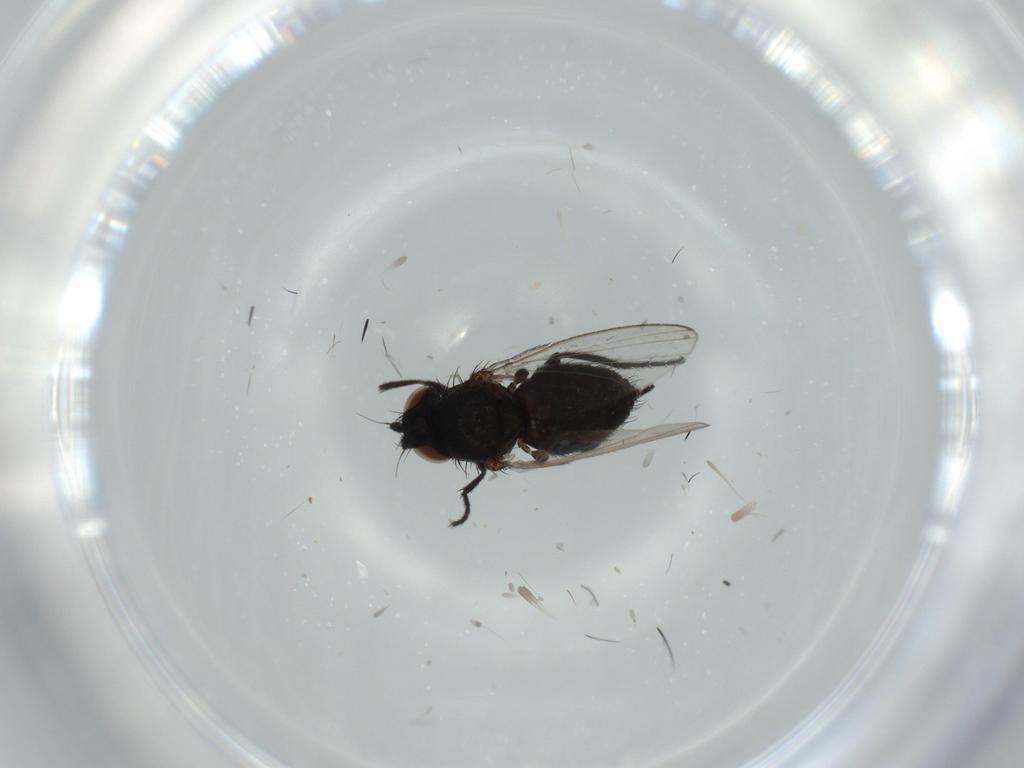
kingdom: Animalia
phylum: Arthropoda
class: Insecta
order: Diptera
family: Milichiidae
